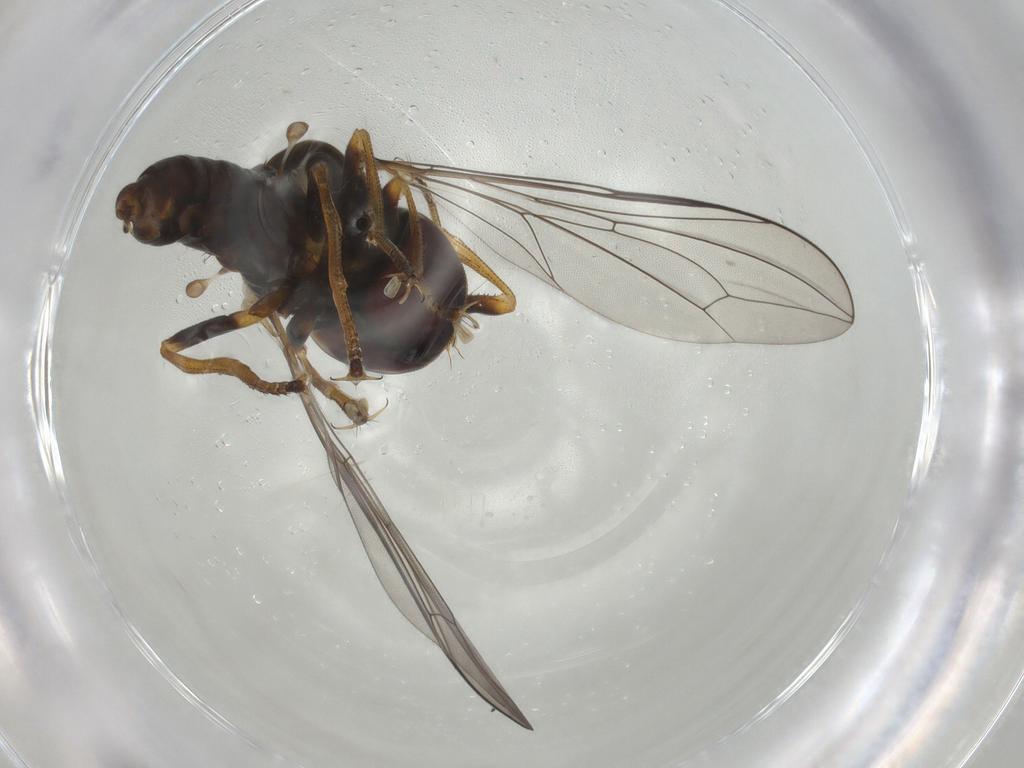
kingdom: Animalia
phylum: Arthropoda
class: Insecta
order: Diptera
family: Pipunculidae
